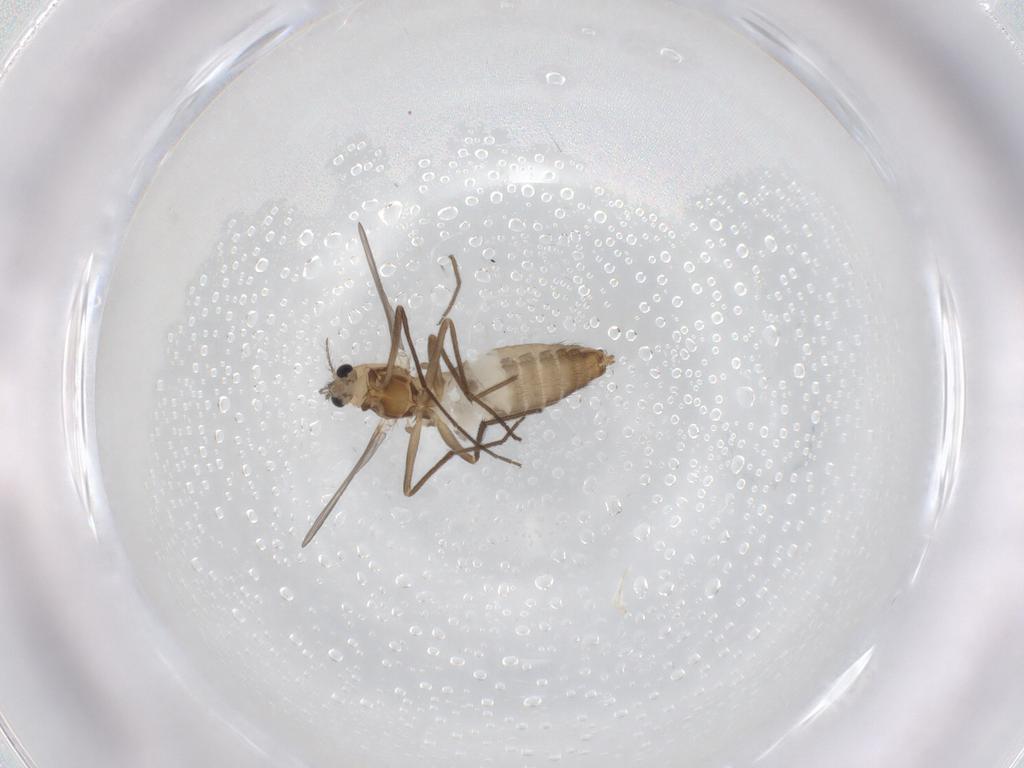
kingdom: Animalia
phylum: Arthropoda
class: Insecta
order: Diptera
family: Chironomidae
